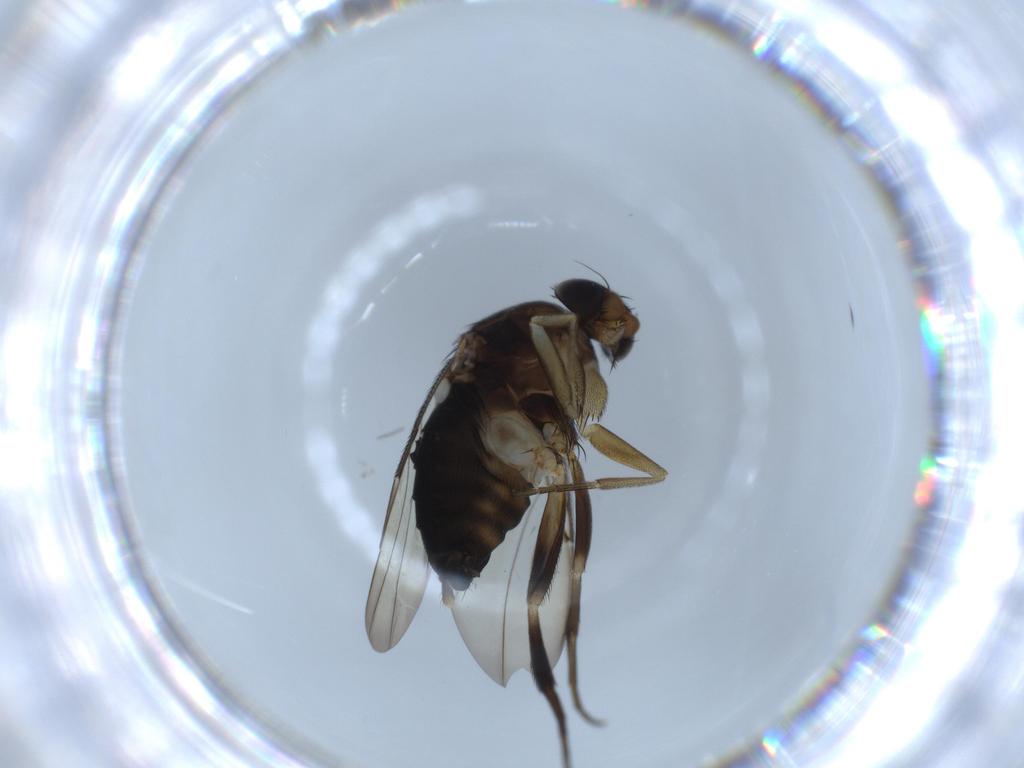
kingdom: Animalia
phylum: Arthropoda
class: Insecta
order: Diptera
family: Phoridae
